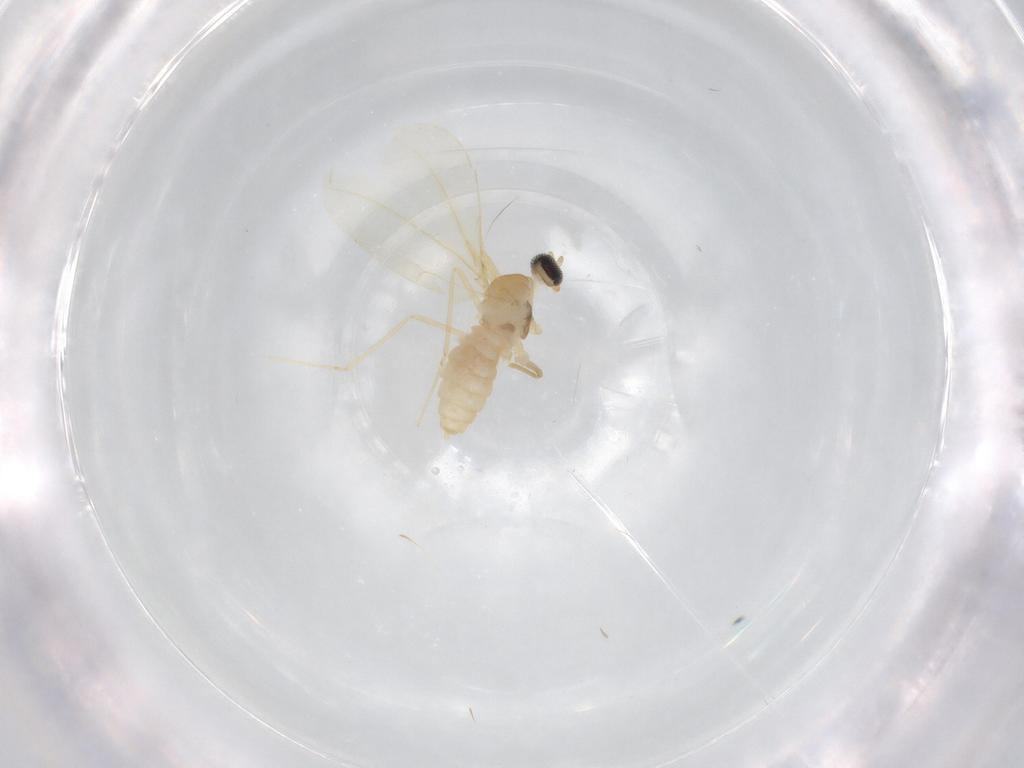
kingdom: Animalia
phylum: Arthropoda
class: Insecta
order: Diptera
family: Cecidomyiidae
